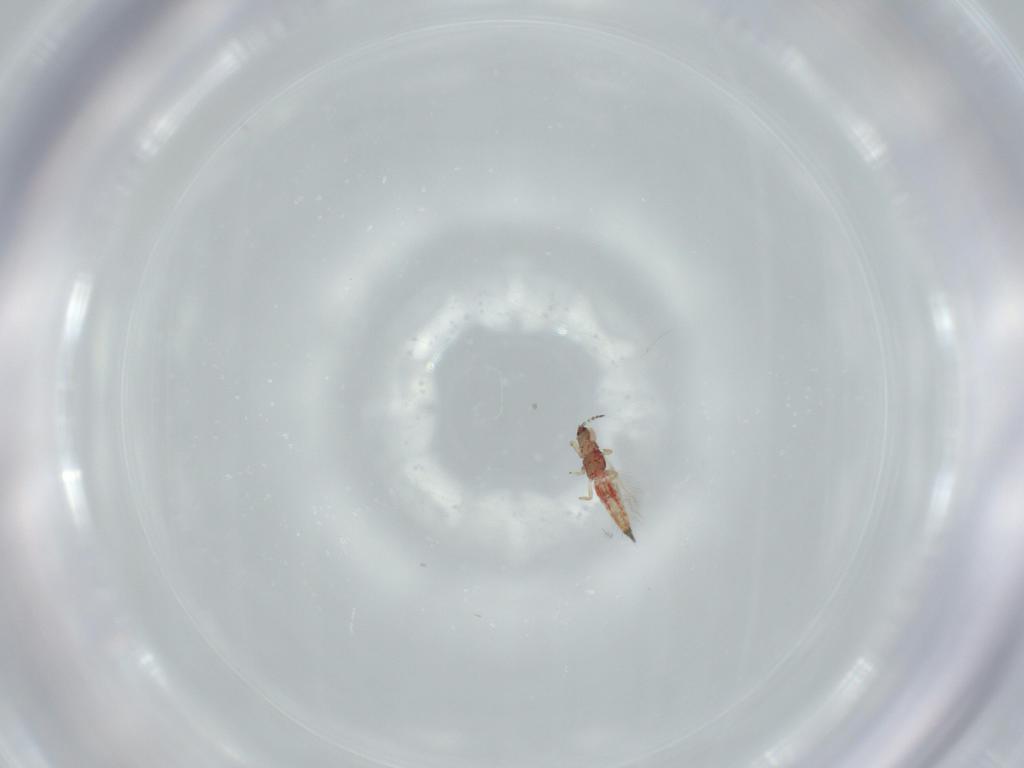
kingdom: Animalia
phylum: Arthropoda
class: Insecta
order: Thysanoptera
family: Phlaeothripidae
